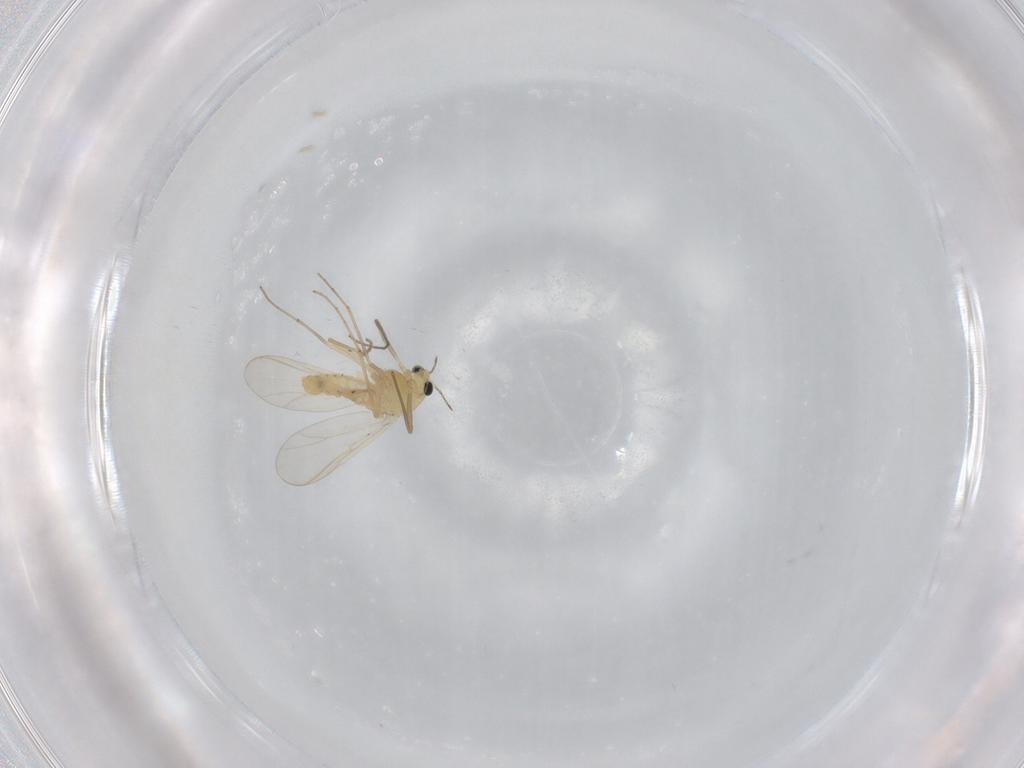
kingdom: Animalia
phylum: Arthropoda
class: Insecta
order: Diptera
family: Chironomidae
